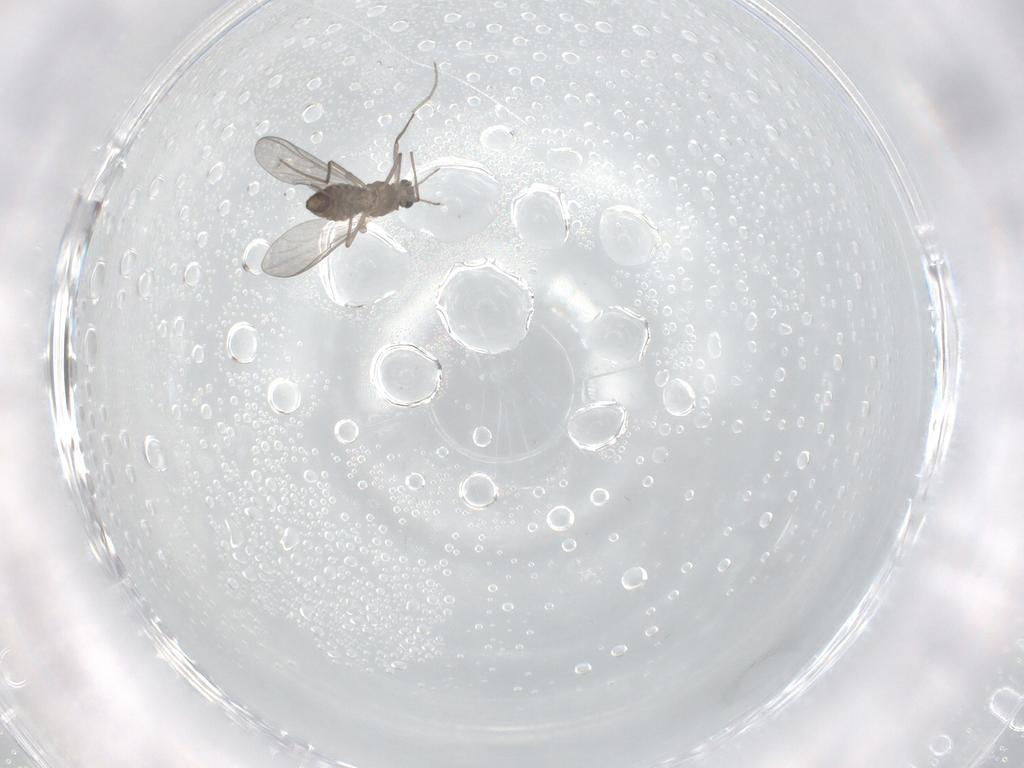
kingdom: Animalia
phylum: Arthropoda
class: Insecta
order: Diptera
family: Chironomidae
